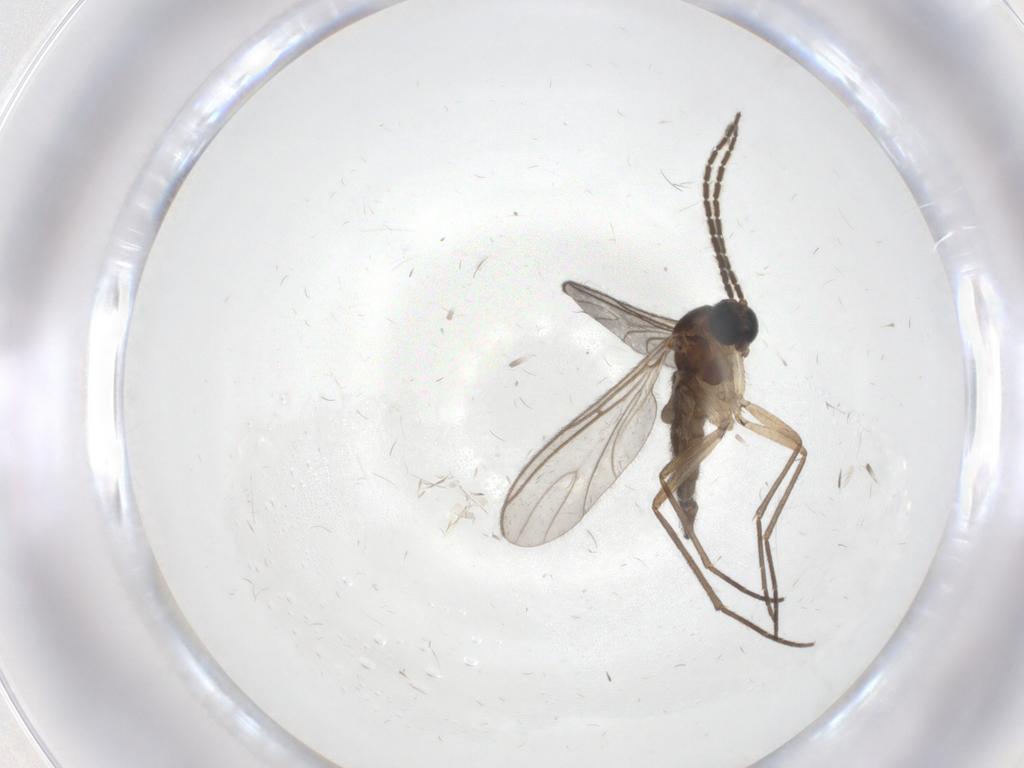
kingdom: Animalia
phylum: Arthropoda
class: Insecta
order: Diptera
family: Sciaridae
